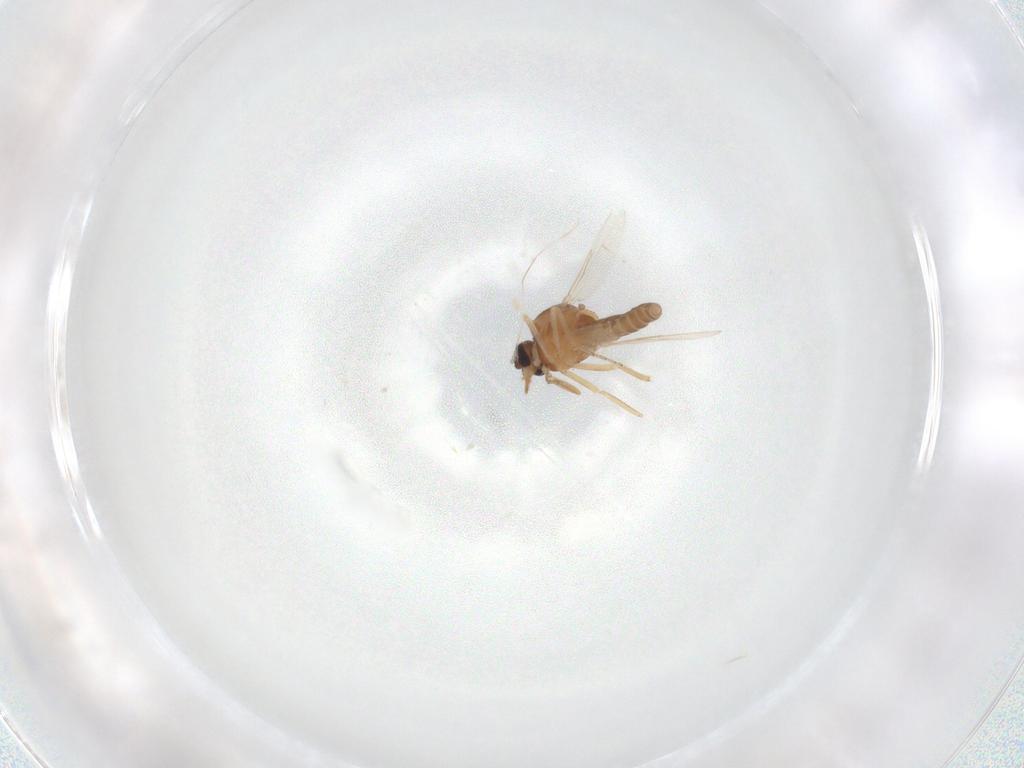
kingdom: Animalia
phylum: Arthropoda
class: Insecta
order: Diptera
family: Ceratopogonidae
